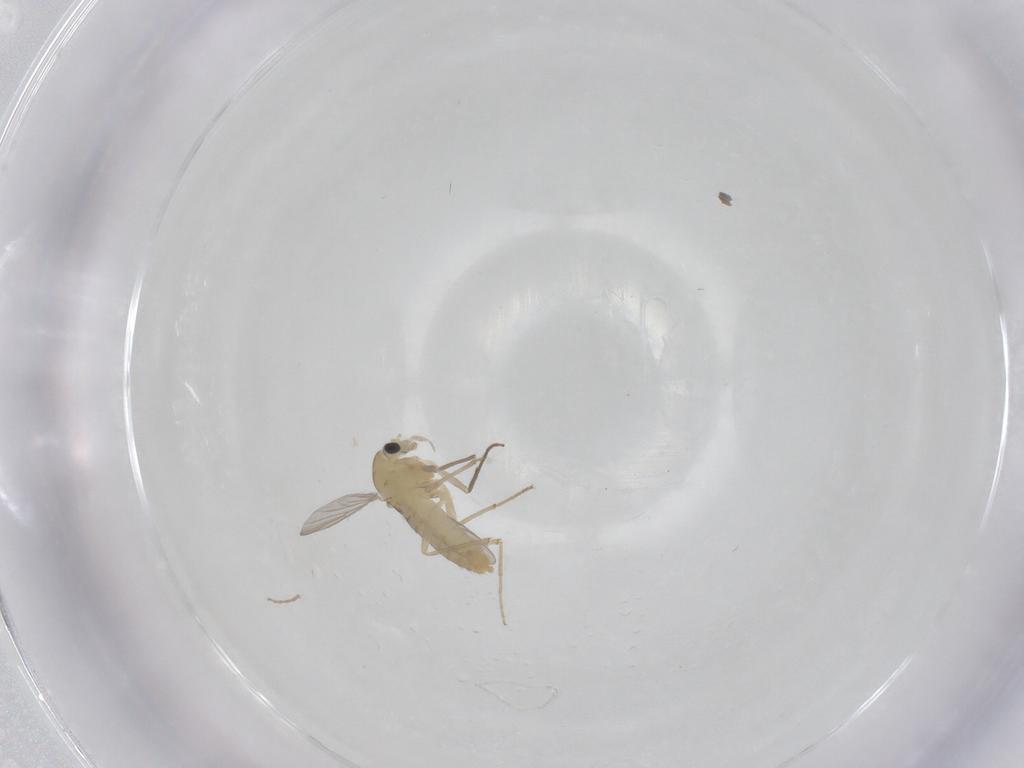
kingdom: Animalia
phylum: Arthropoda
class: Insecta
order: Diptera
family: Chironomidae
